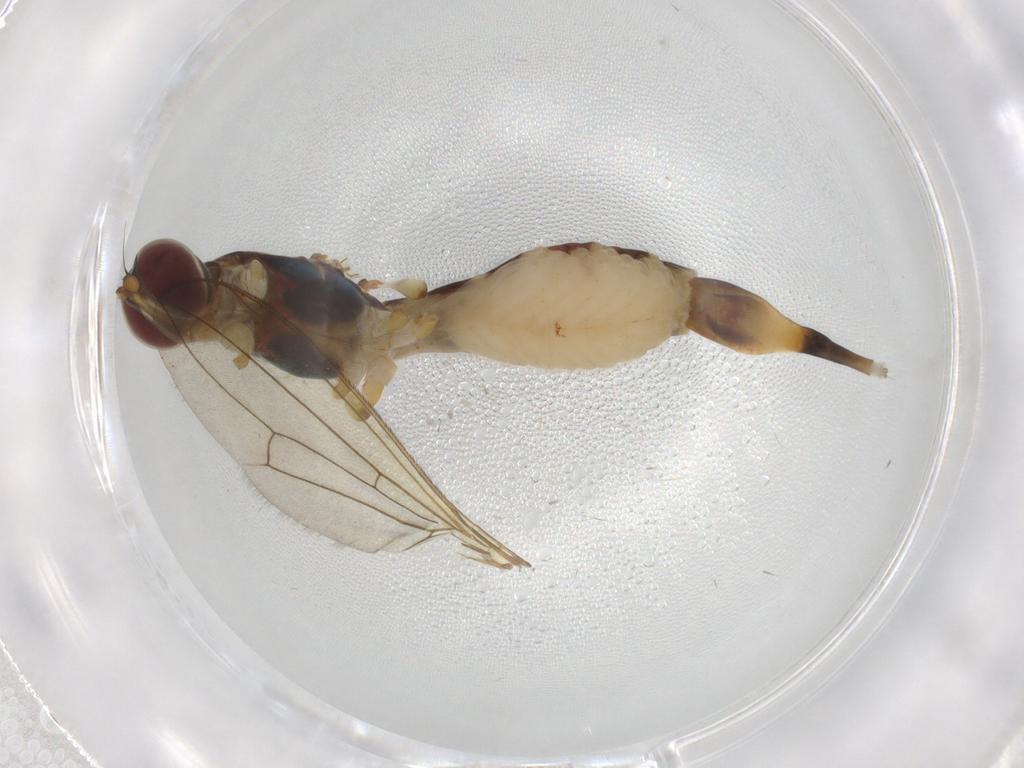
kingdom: Animalia
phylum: Arthropoda
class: Insecta
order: Diptera
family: Micropezidae
